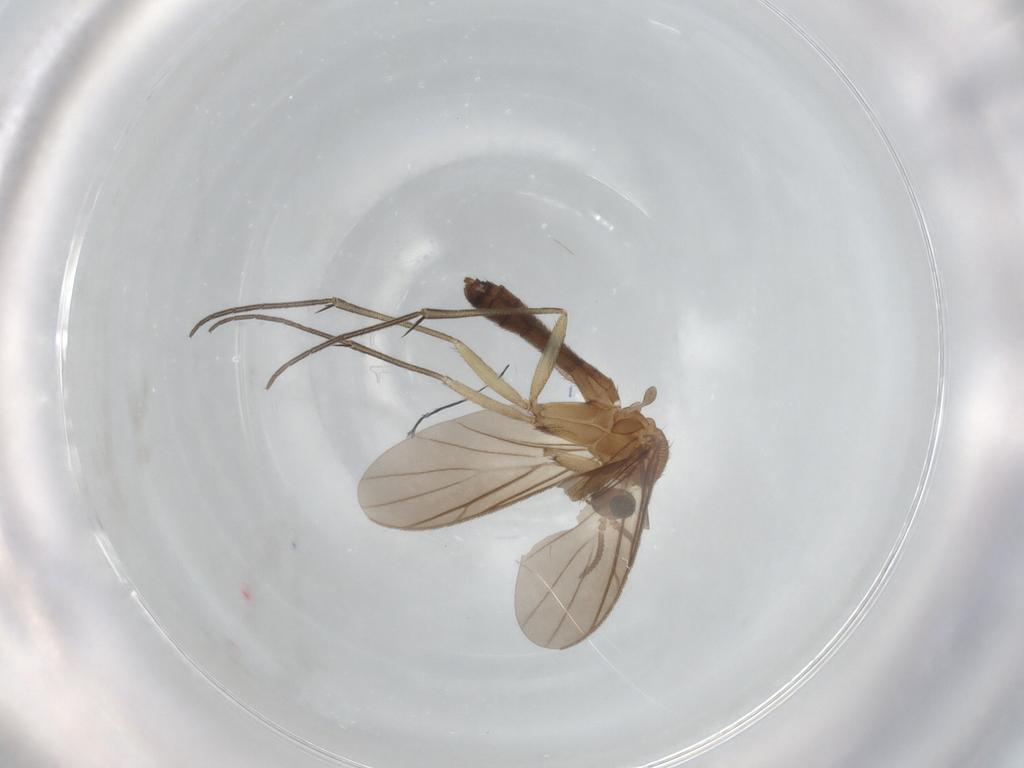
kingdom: Animalia
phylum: Arthropoda
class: Insecta
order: Diptera
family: Keroplatidae
